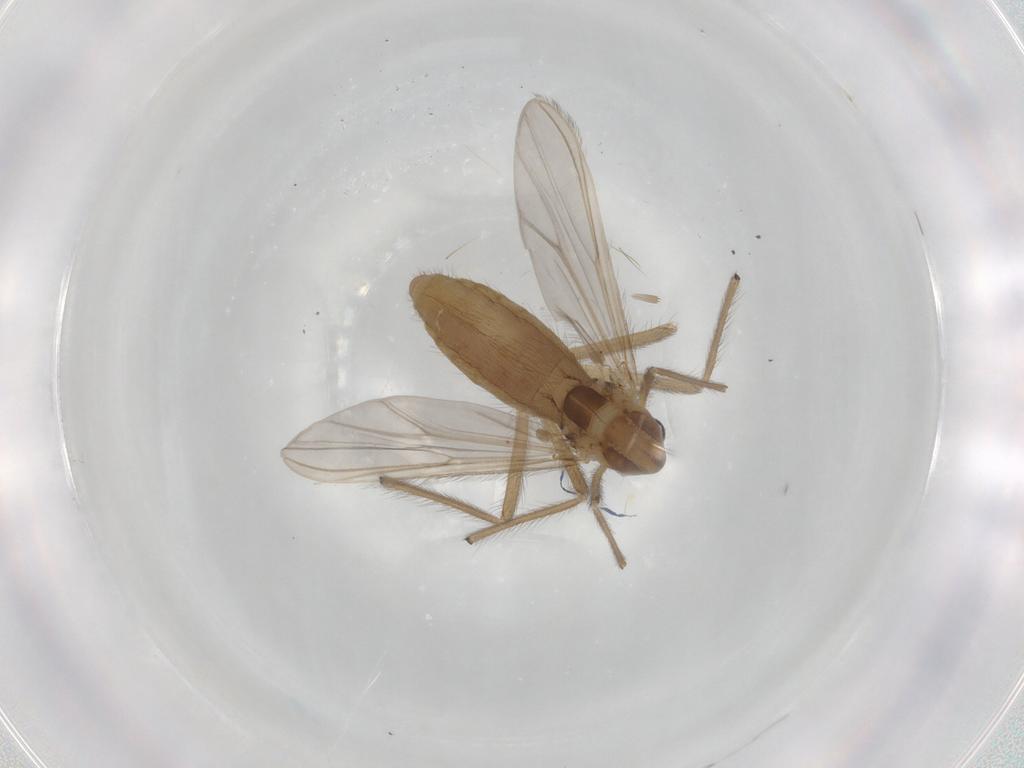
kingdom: Animalia
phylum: Arthropoda
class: Insecta
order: Diptera
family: Chironomidae
